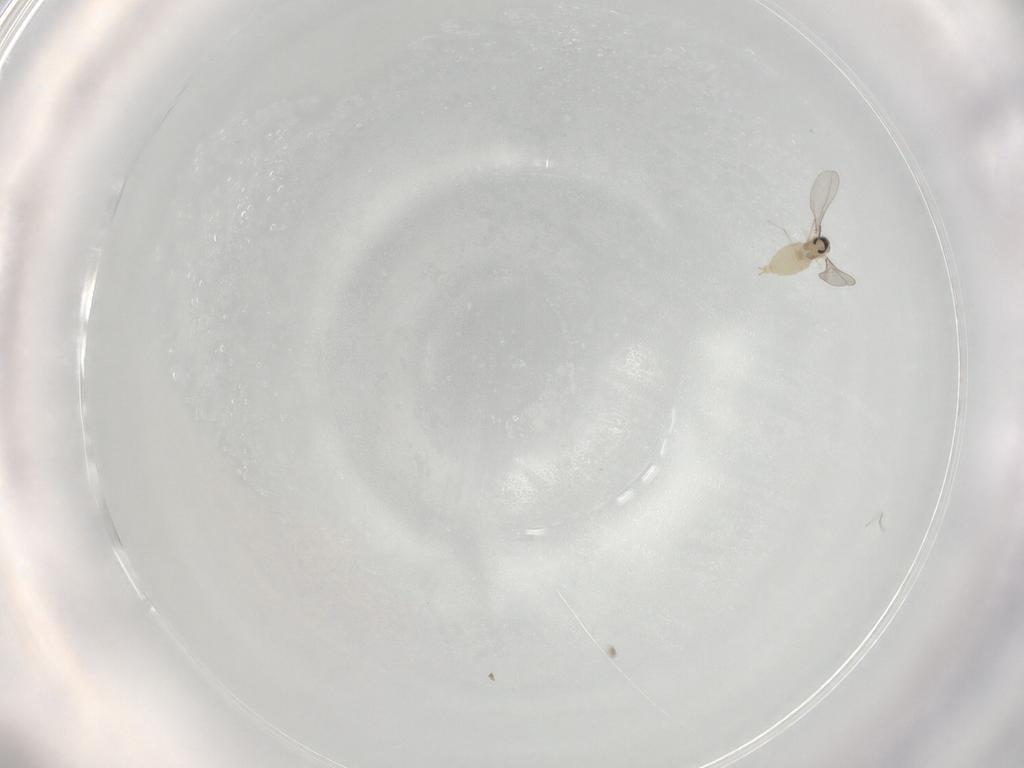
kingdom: Animalia
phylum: Arthropoda
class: Insecta
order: Diptera
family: Cecidomyiidae
